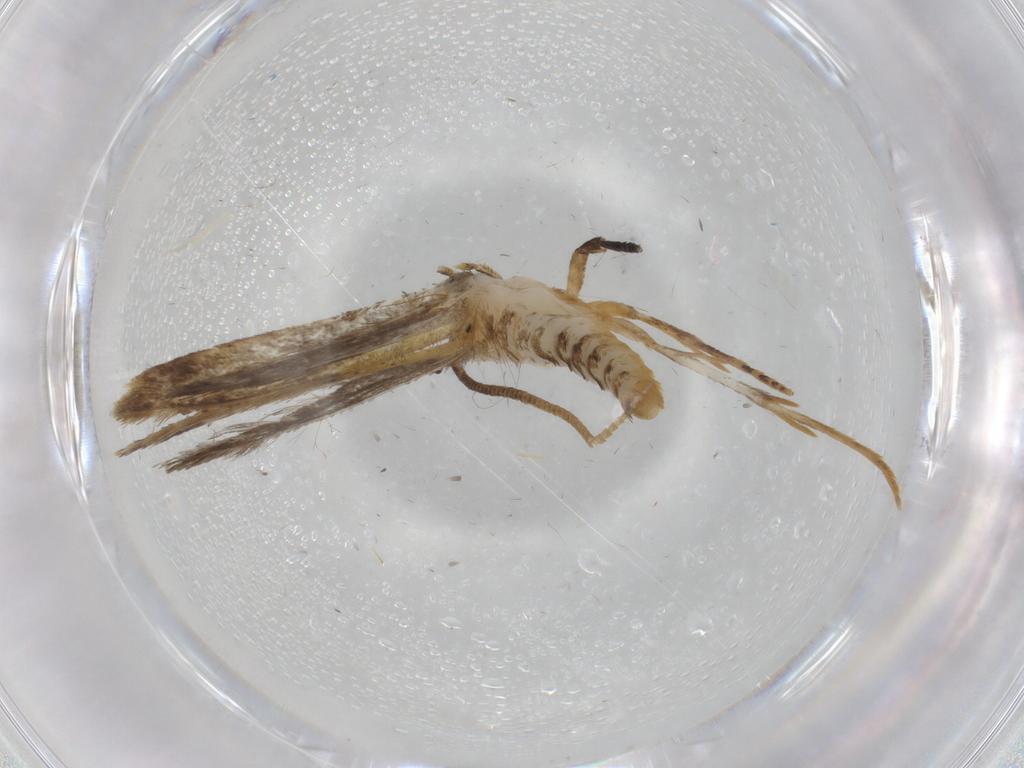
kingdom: Animalia
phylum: Arthropoda
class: Insecta
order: Lepidoptera
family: Tineidae
